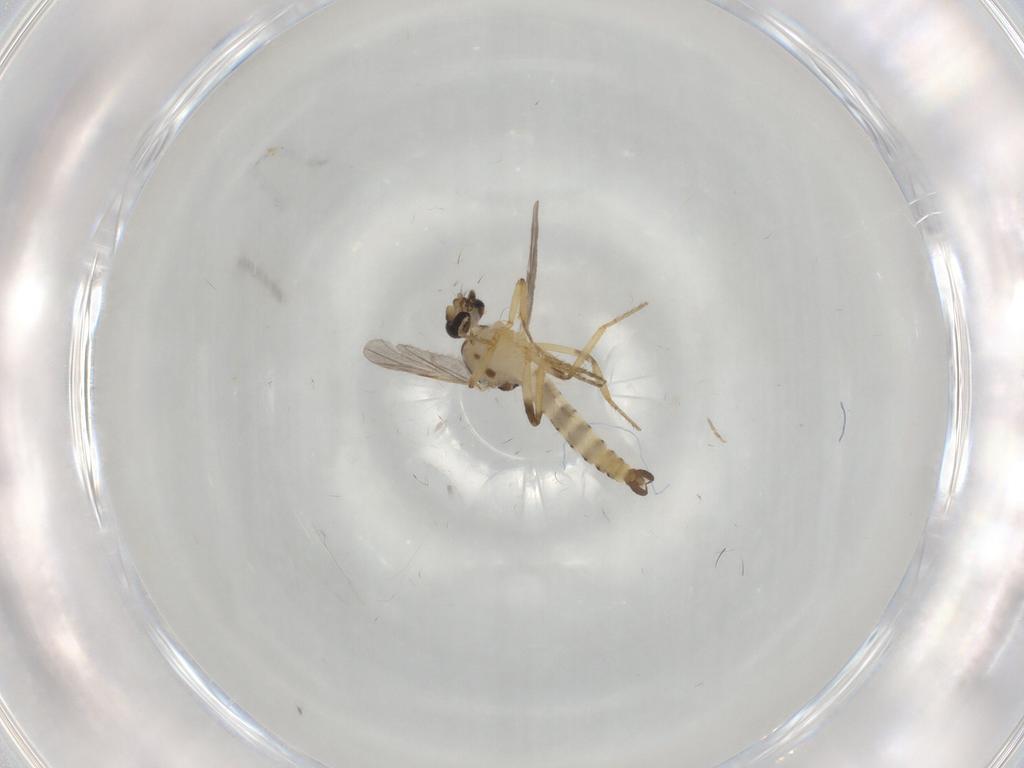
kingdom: Animalia
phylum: Arthropoda
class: Insecta
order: Diptera
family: Ceratopogonidae
